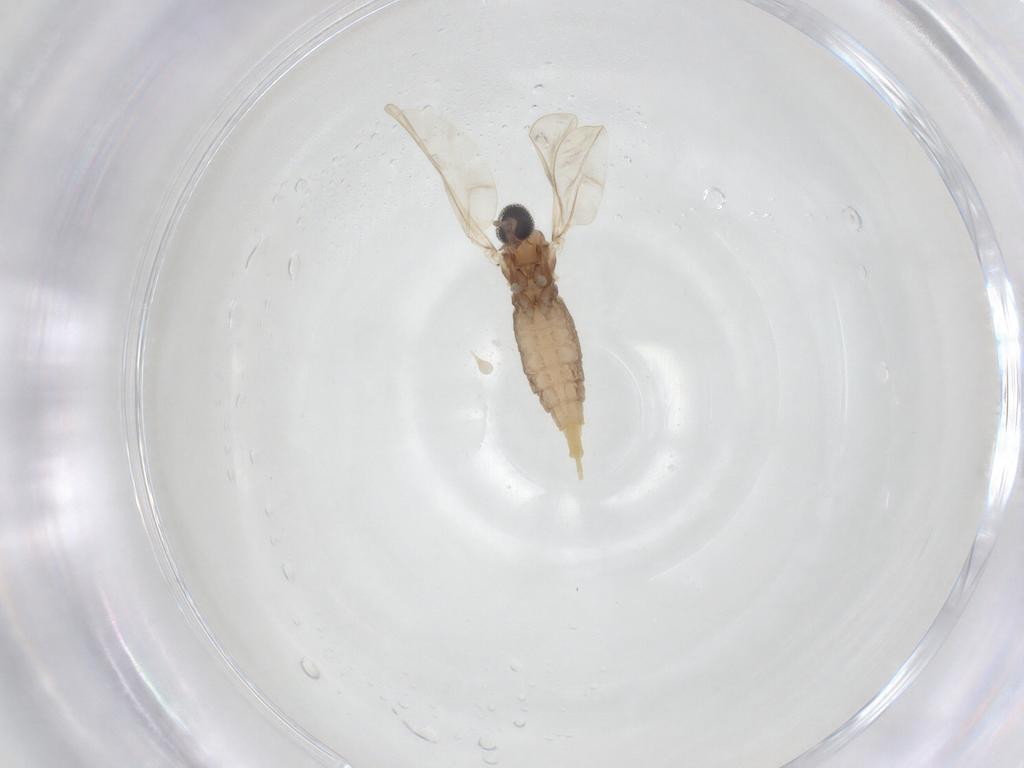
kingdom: Animalia
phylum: Arthropoda
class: Insecta
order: Diptera
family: Cecidomyiidae
